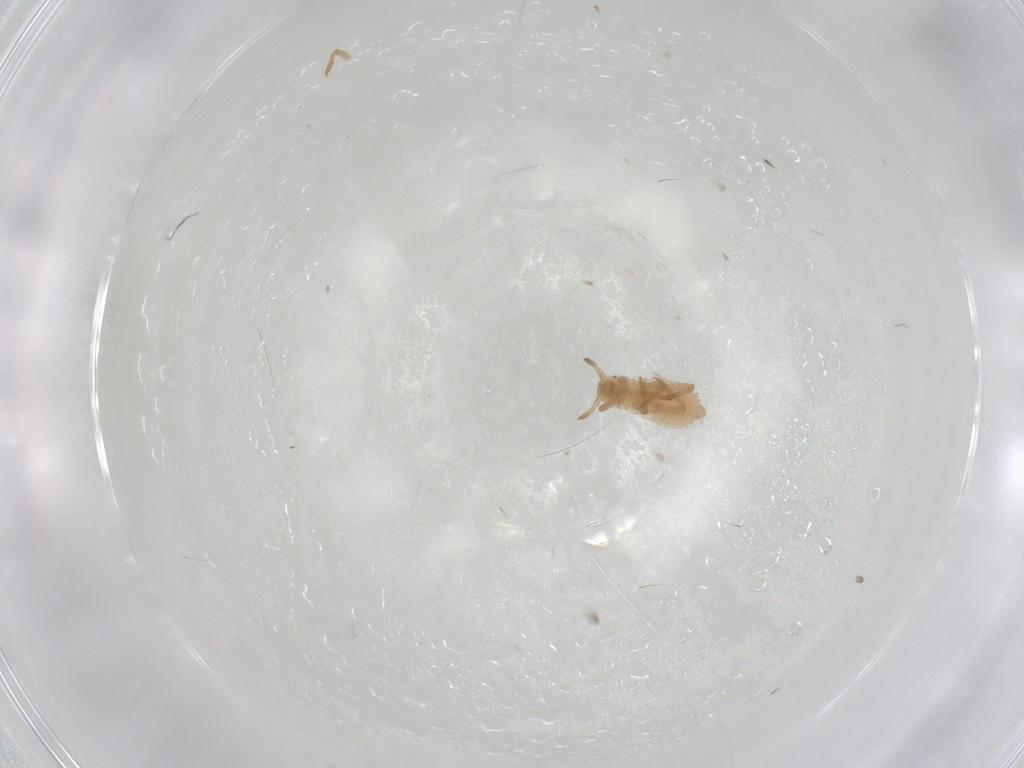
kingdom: Animalia
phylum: Arthropoda
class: Insecta
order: Hemiptera
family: Aphididae
